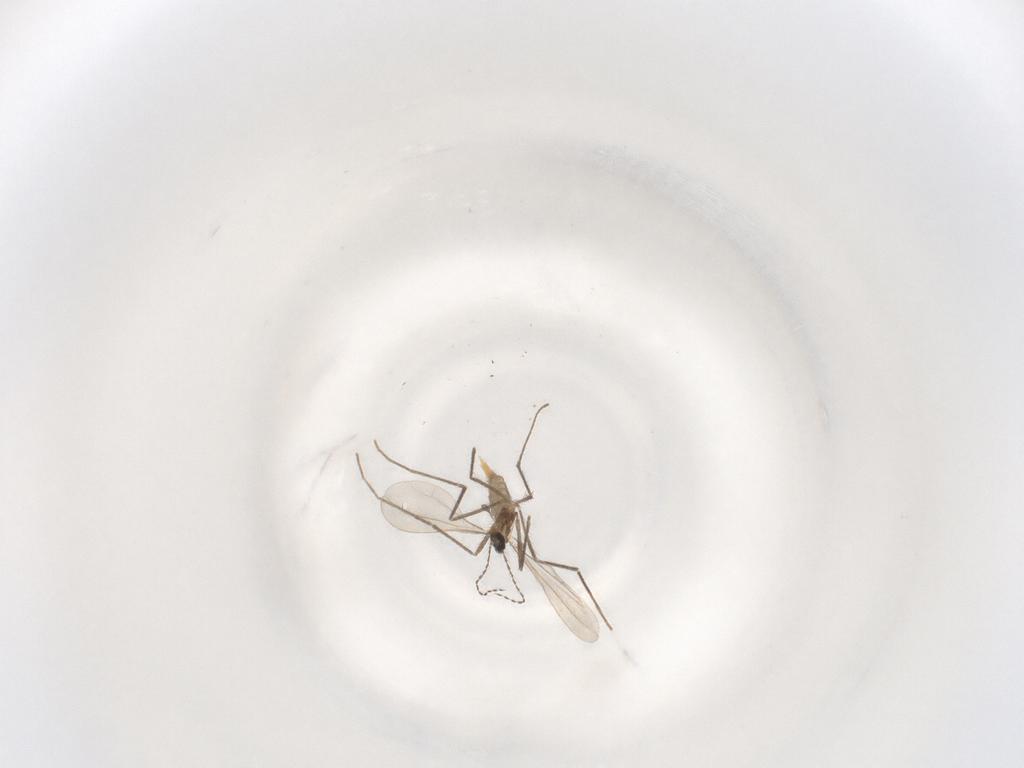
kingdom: Animalia
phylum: Arthropoda
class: Insecta
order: Diptera
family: Cecidomyiidae
